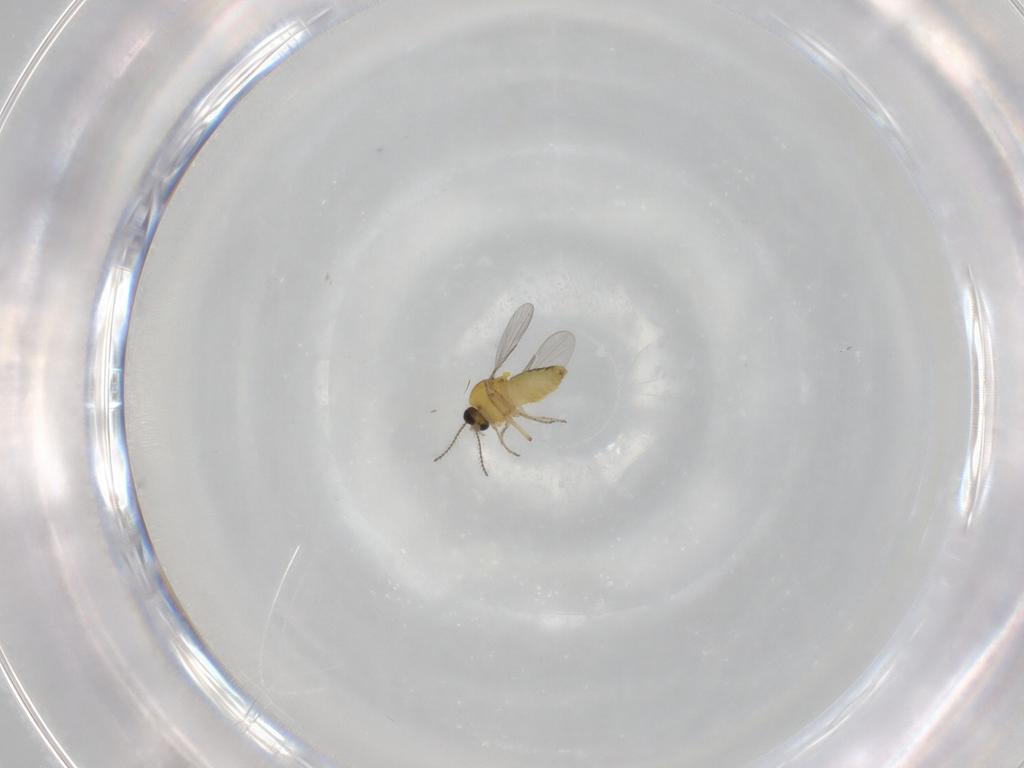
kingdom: Animalia
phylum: Arthropoda
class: Insecta
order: Diptera
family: Ceratopogonidae
